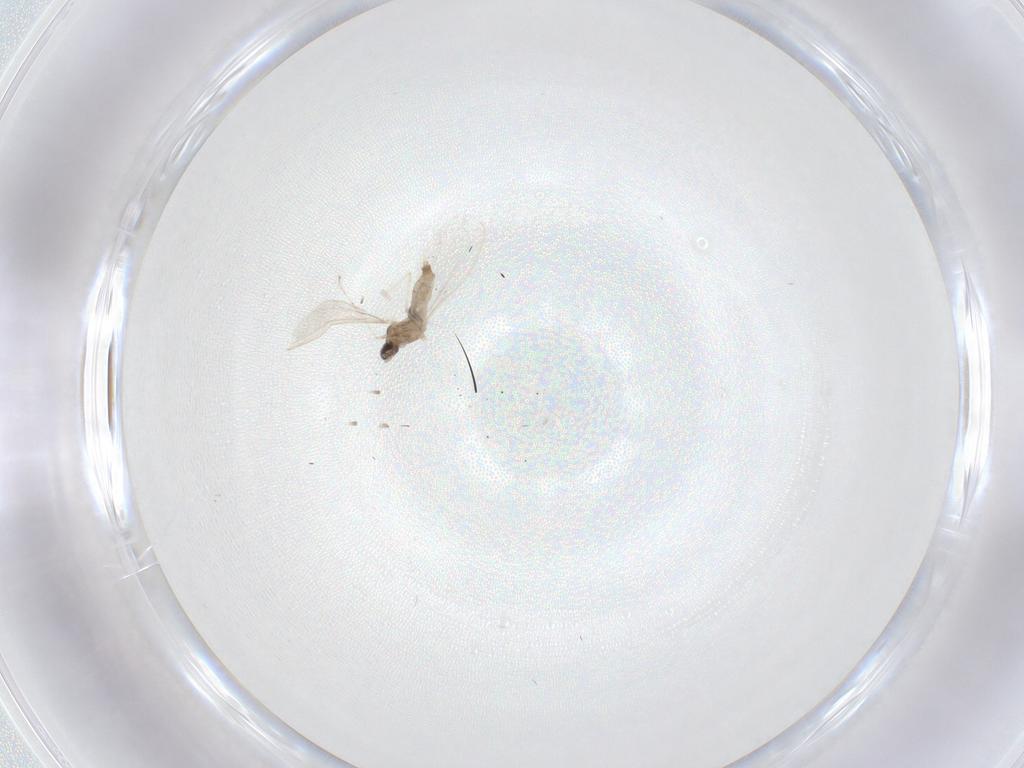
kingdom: Animalia
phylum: Arthropoda
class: Insecta
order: Diptera
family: Cecidomyiidae
